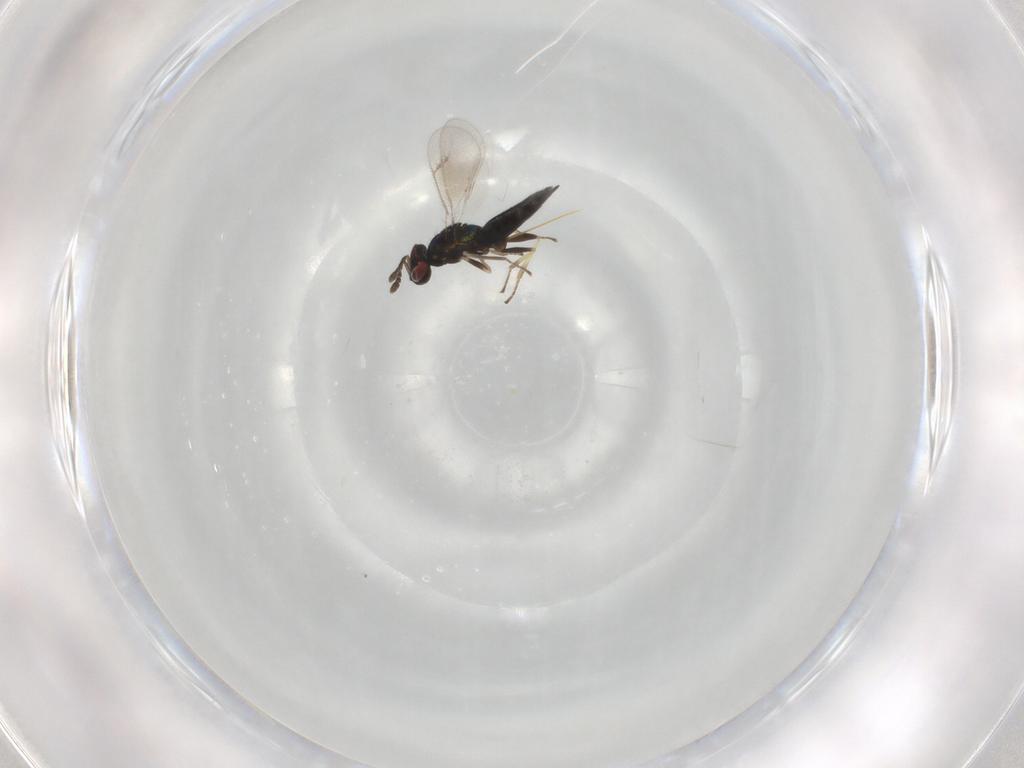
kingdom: Animalia
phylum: Arthropoda
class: Insecta
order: Hymenoptera
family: Eulophidae
